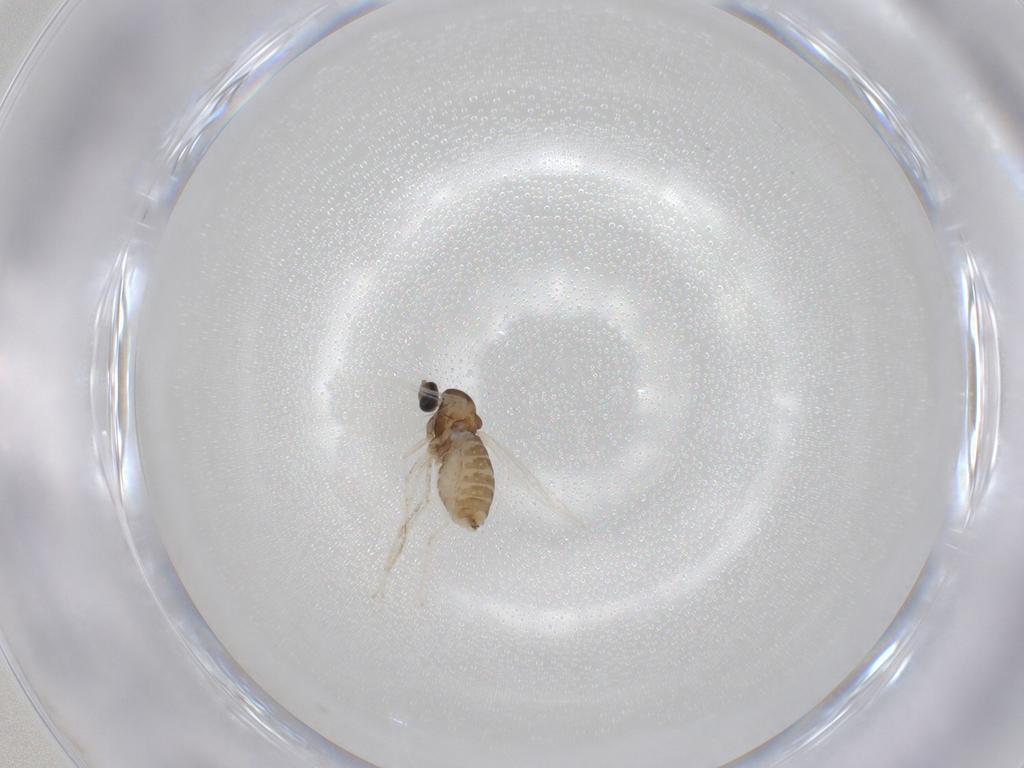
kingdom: Animalia
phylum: Arthropoda
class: Insecta
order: Diptera
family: Cecidomyiidae
